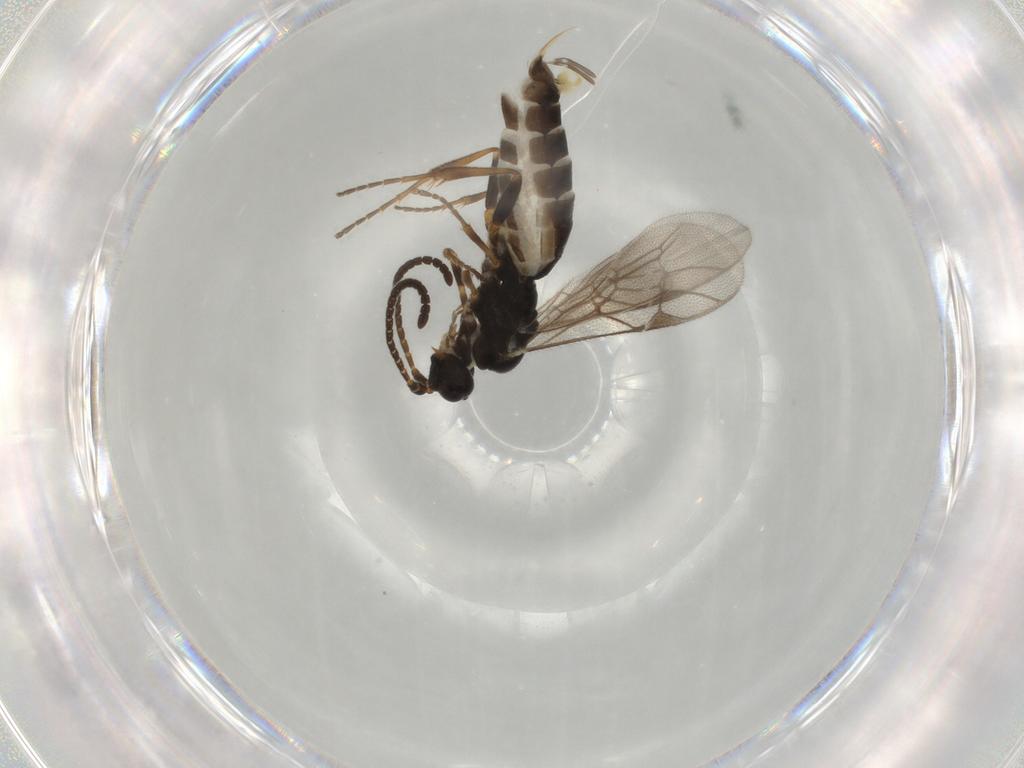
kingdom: Animalia
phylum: Arthropoda
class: Insecta
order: Hymenoptera
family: Ichneumonidae
